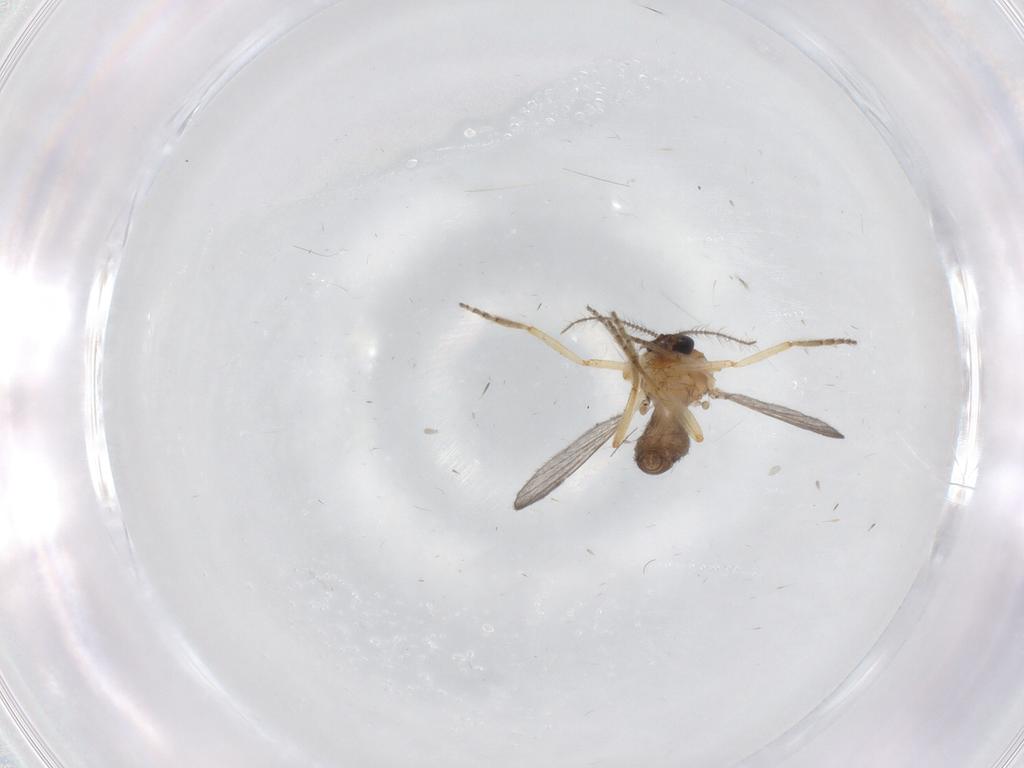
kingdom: Animalia
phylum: Arthropoda
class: Insecta
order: Diptera
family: Ceratopogonidae
